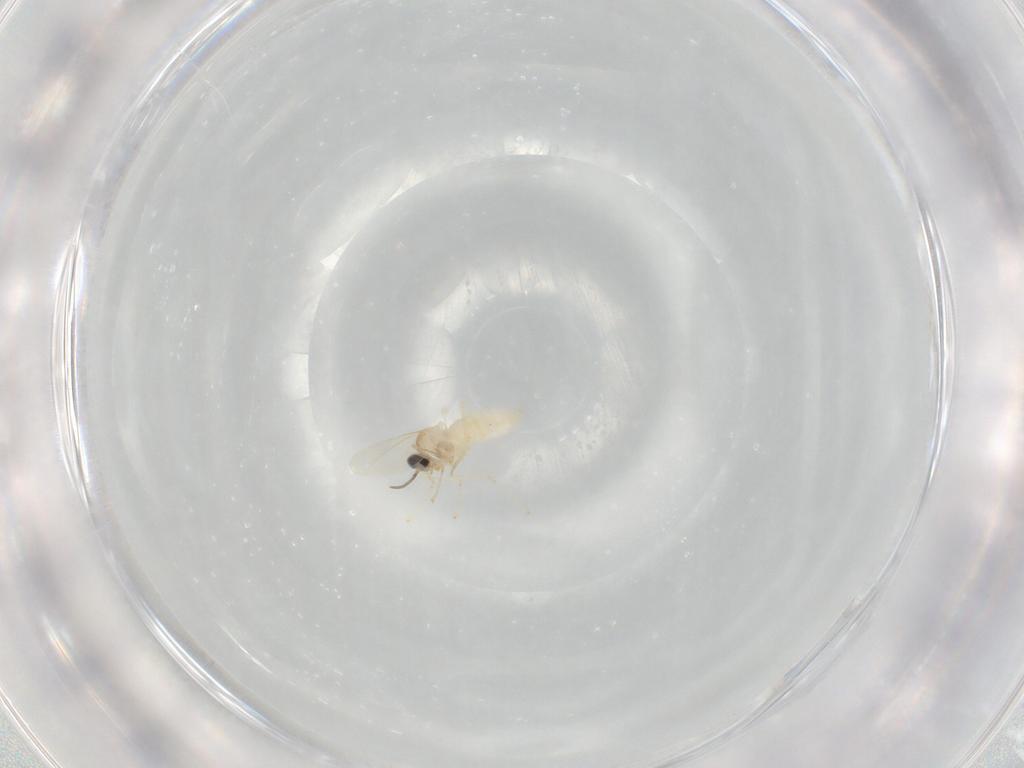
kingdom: Animalia
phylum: Arthropoda
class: Insecta
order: Diptera
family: Cecidomyiidae
